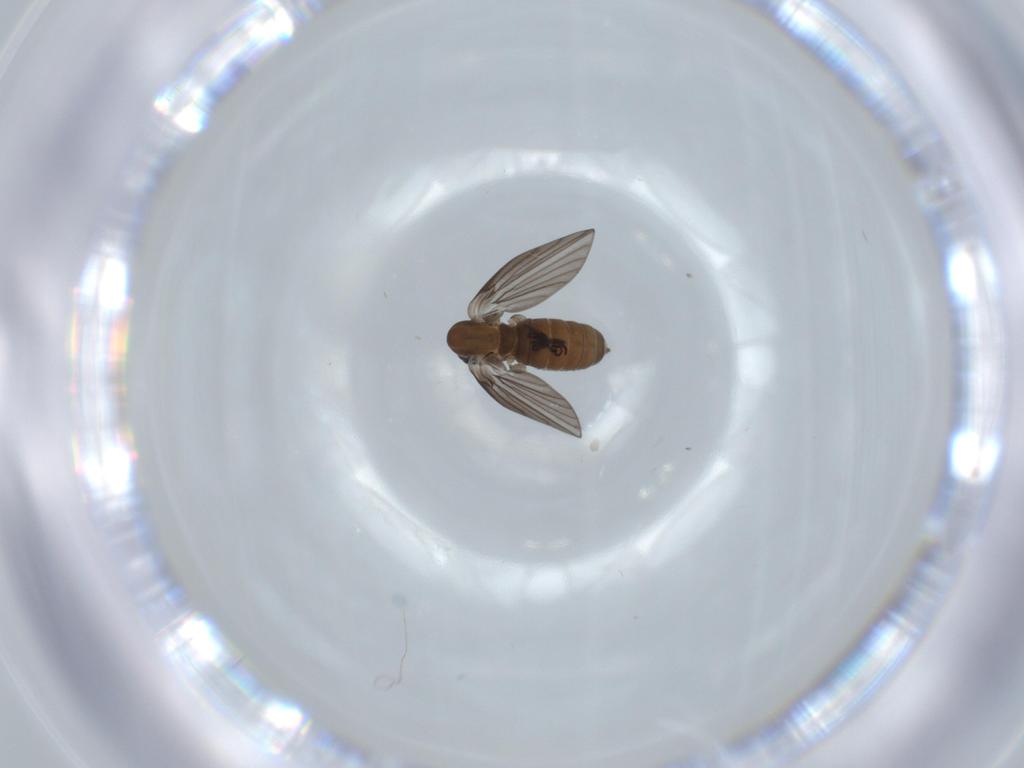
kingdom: Animalia
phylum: Arthropoda
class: Insecta
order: Diptera
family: Psychodidae
